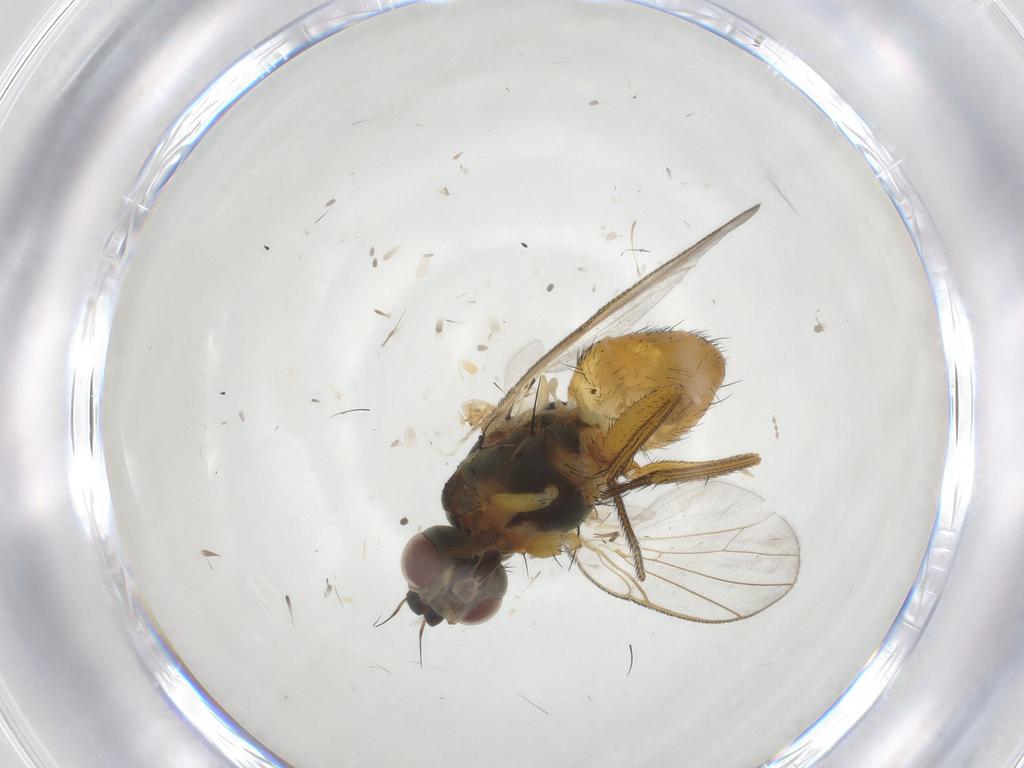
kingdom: Animalia
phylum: Arthropoda
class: Insecta
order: Diptera
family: Muscidae
